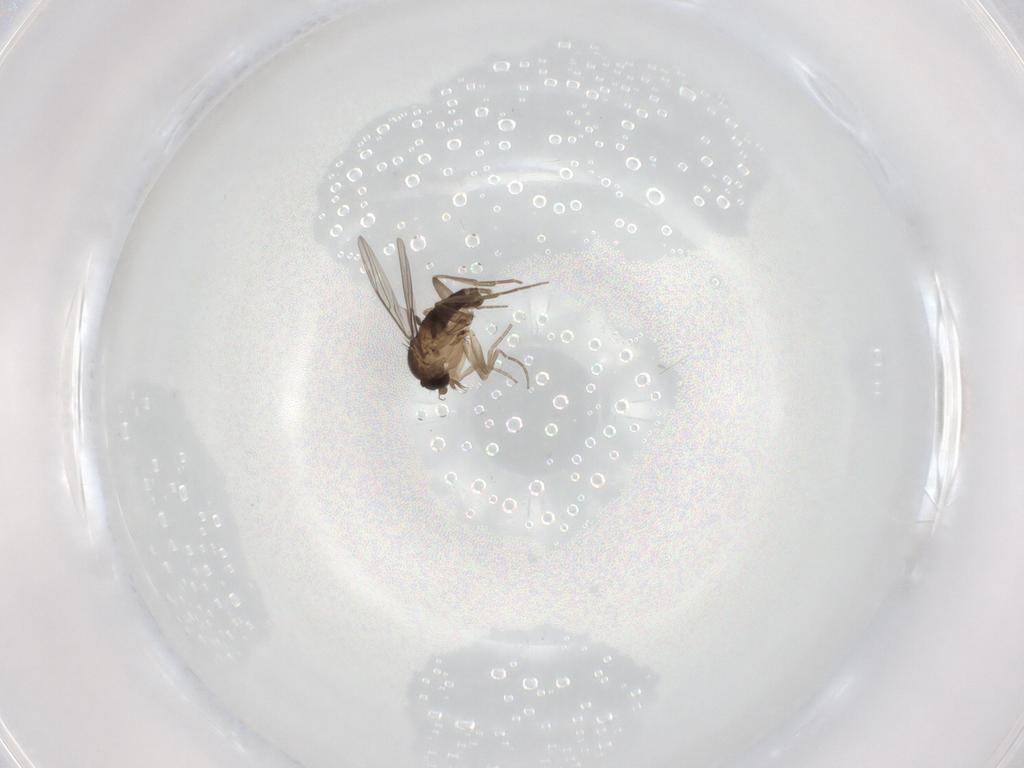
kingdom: Animalia
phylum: Arthropoda
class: Insecta
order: Diptera
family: Phoridae
